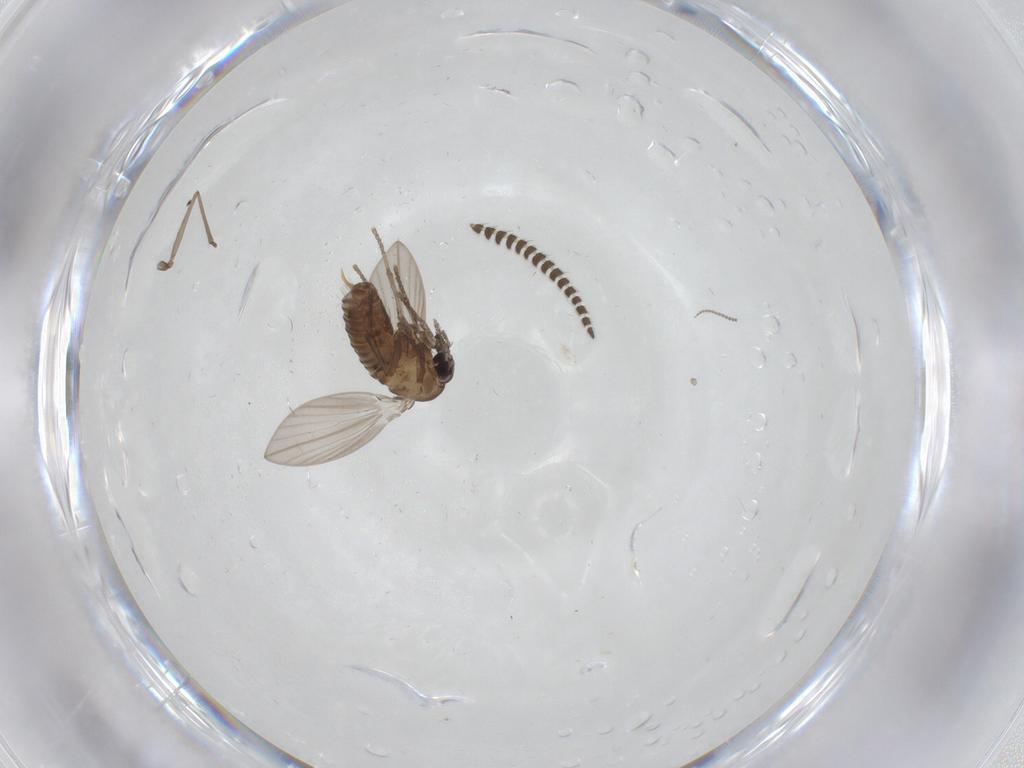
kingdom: Animalia
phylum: Arthropoda
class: Insecta
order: Diptera
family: Psychodidae
